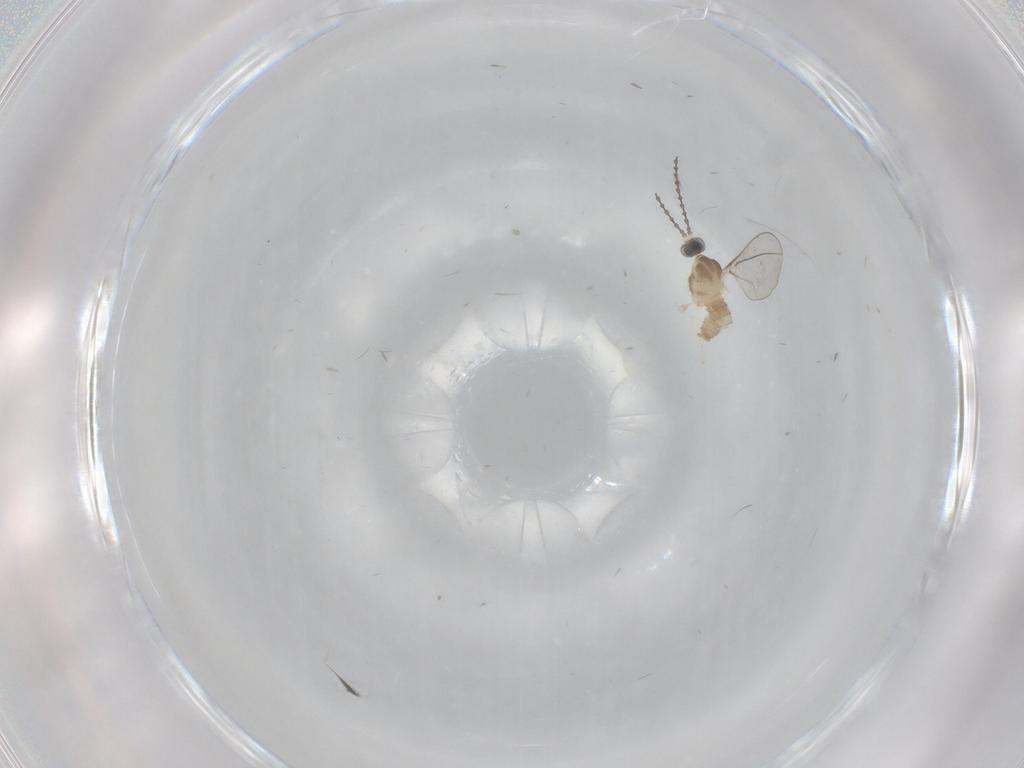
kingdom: Animalia
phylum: Arthropoda
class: Insecta
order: Diptera
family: Cecidomyiidae
